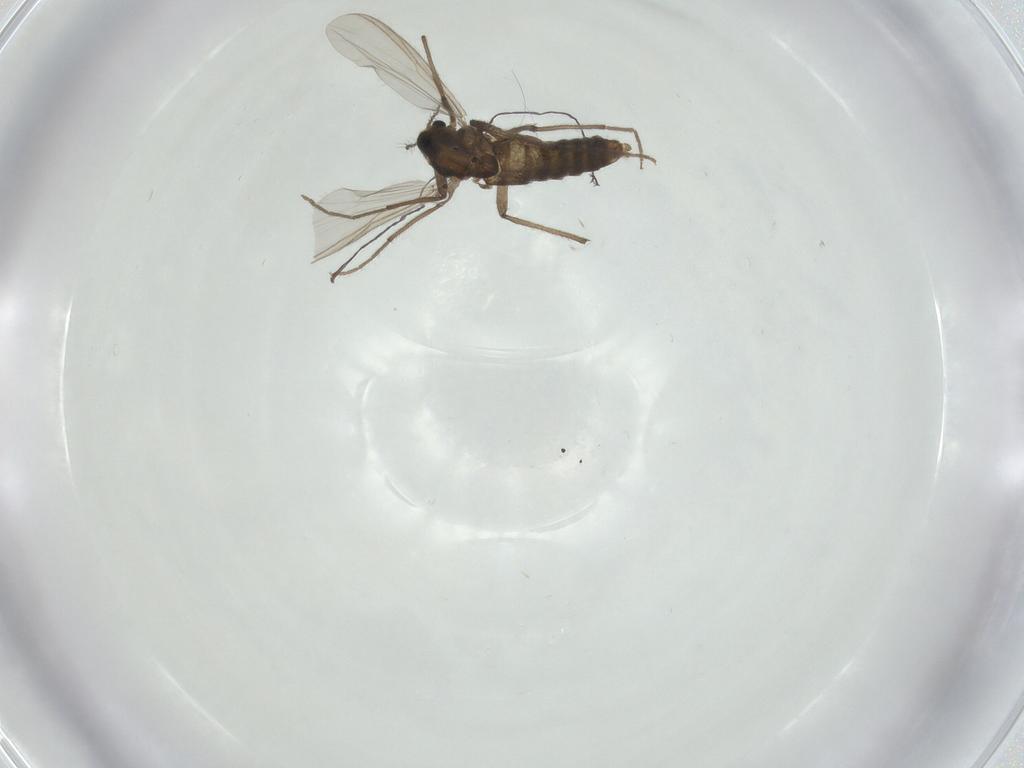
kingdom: Animalia
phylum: Arthropoda
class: Insecta
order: Diptera
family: Chironomidae
